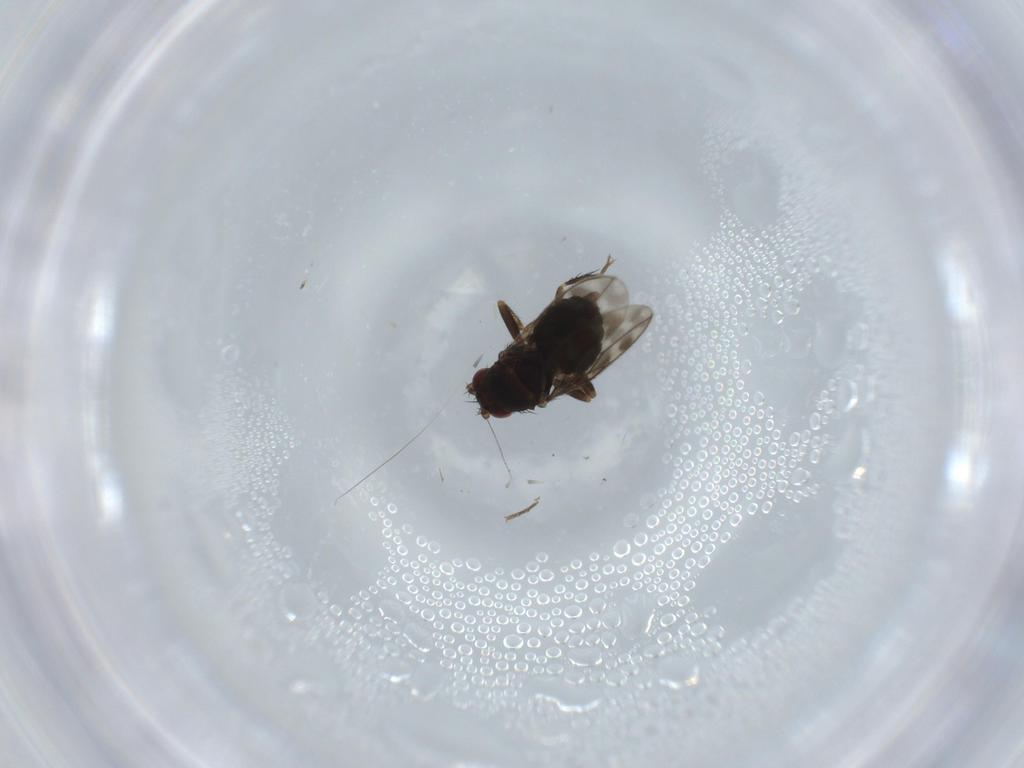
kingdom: Animalia
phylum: Arthropoda
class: Insecta
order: Diptera
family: Sphaeroceridae
